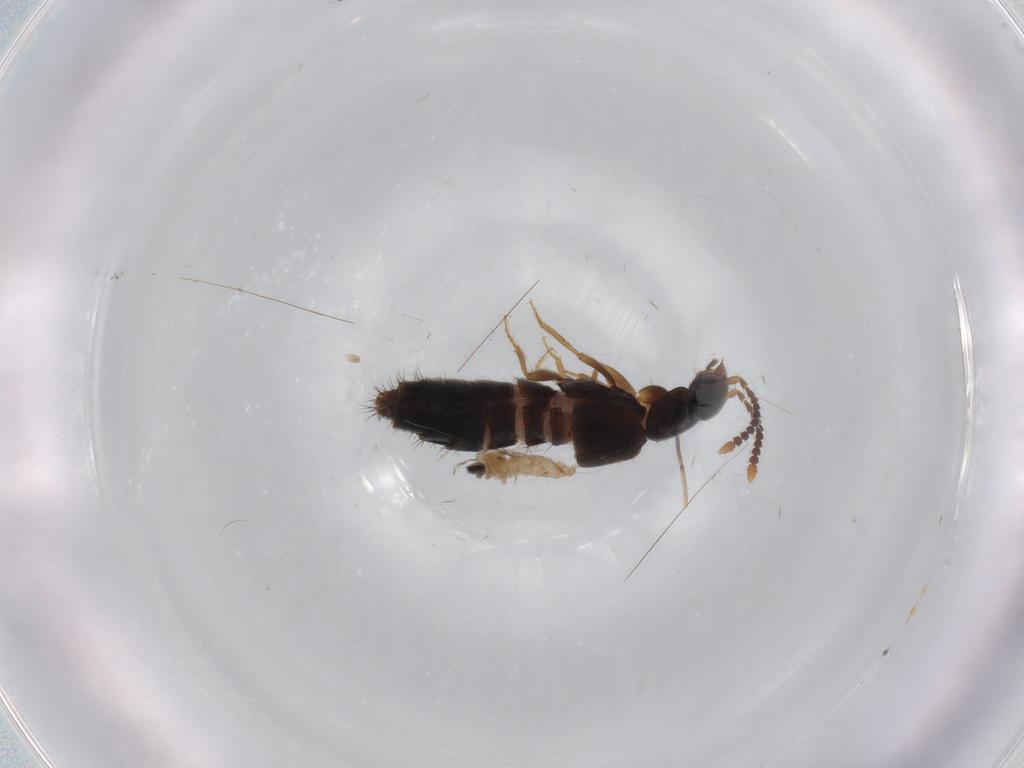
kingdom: Animalia
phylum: Arthropoda
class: Insecta
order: Coleoptera
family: Staphylinidae
